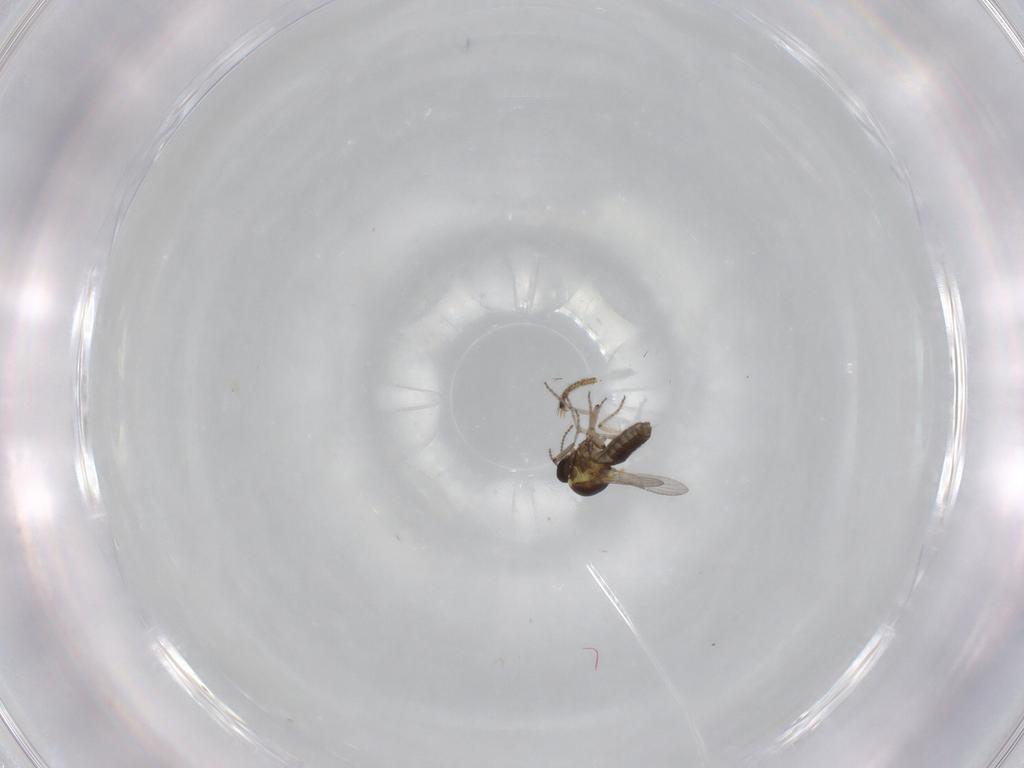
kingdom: Animalia
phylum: Arthropoda
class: Insecta
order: Diptera
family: Ceratopogonidae
